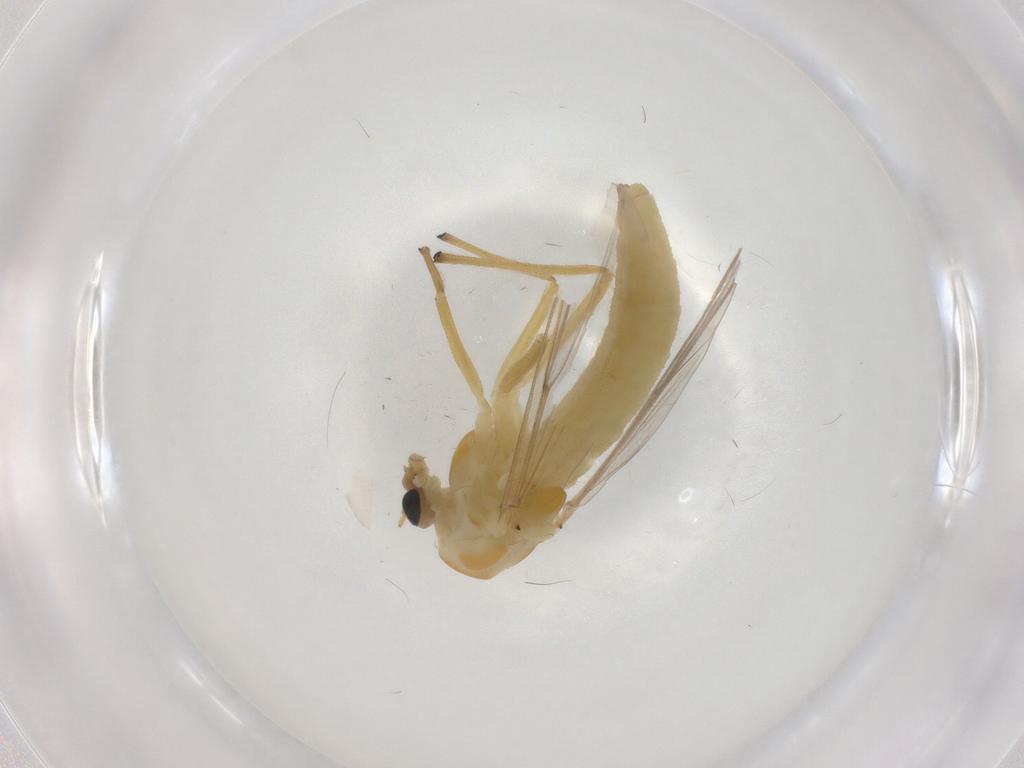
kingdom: Animalia
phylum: Arthropoda
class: Insecta
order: Diptera
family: Chironomidae
